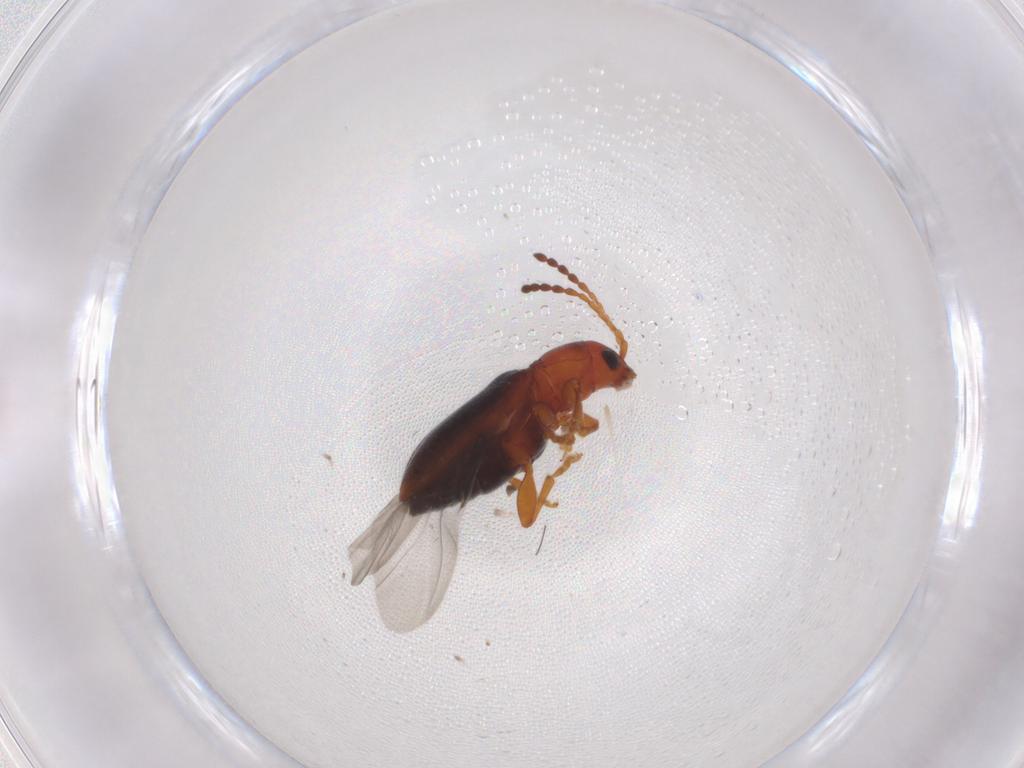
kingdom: Animalia
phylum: Arthropoda
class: Insecta
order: Coleoptera
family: Chrysomelidae
